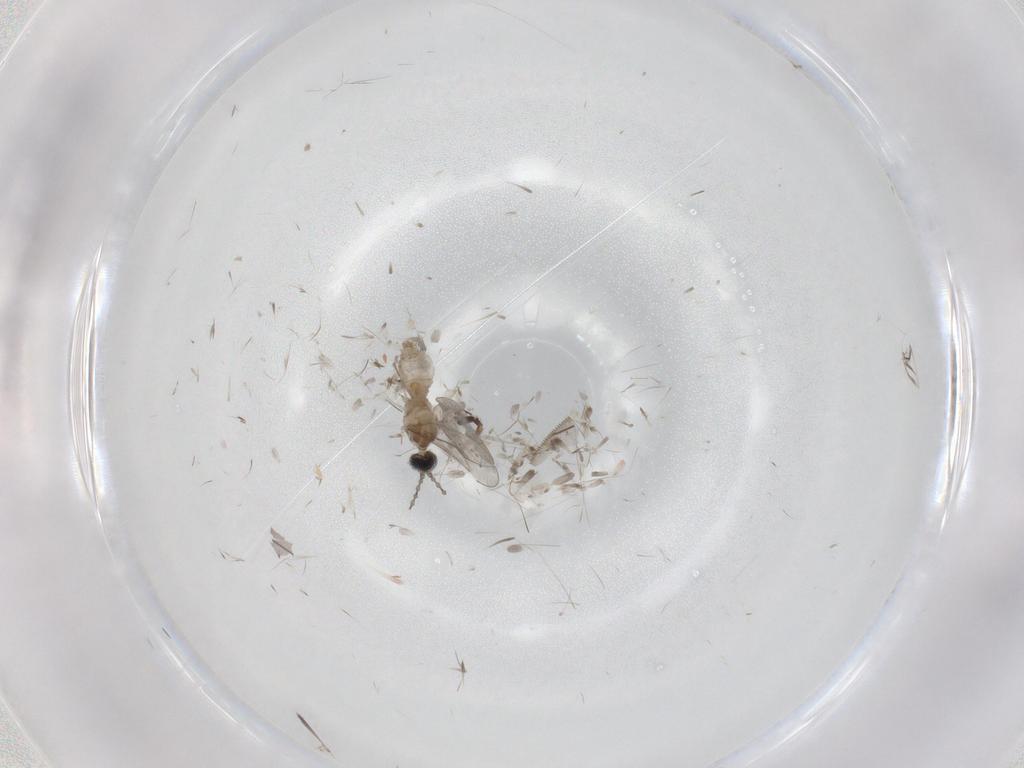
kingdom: Animalia
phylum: Arthropoda
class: Insecta
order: Diptera
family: Cecidomyiidae
